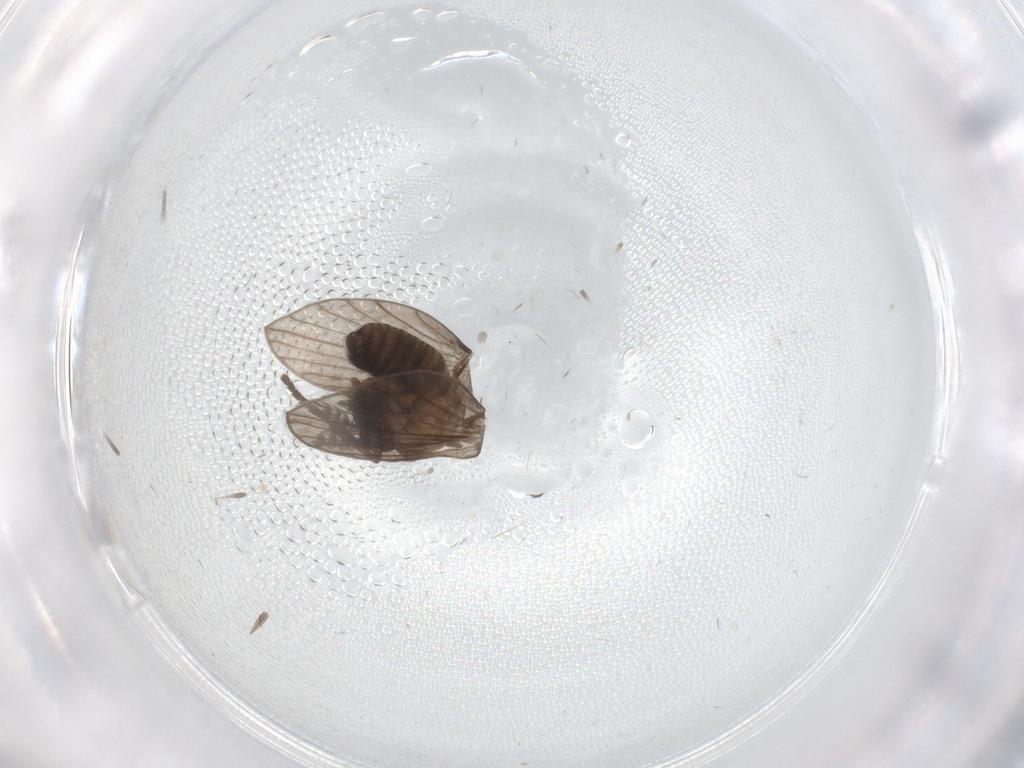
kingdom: Animalia
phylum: Arthropoda
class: Insecta
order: Diptera
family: Psychodidae
